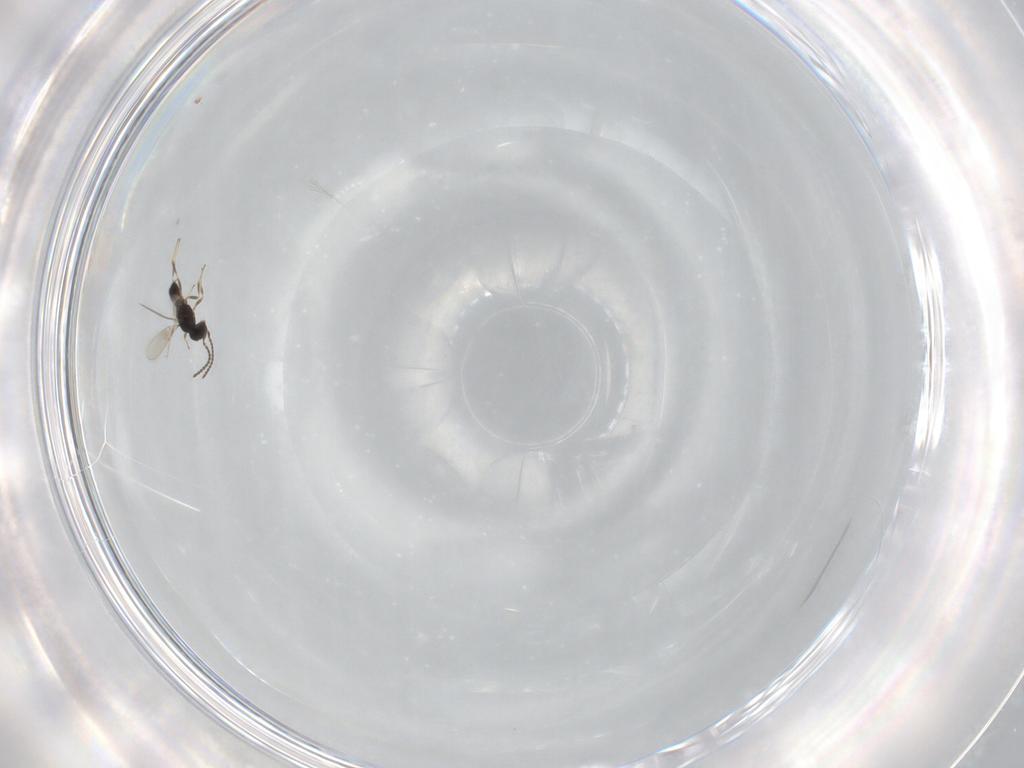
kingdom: Animalia
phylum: Arthropoda
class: Insecta
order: Hymenoptera
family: Scelionidae
